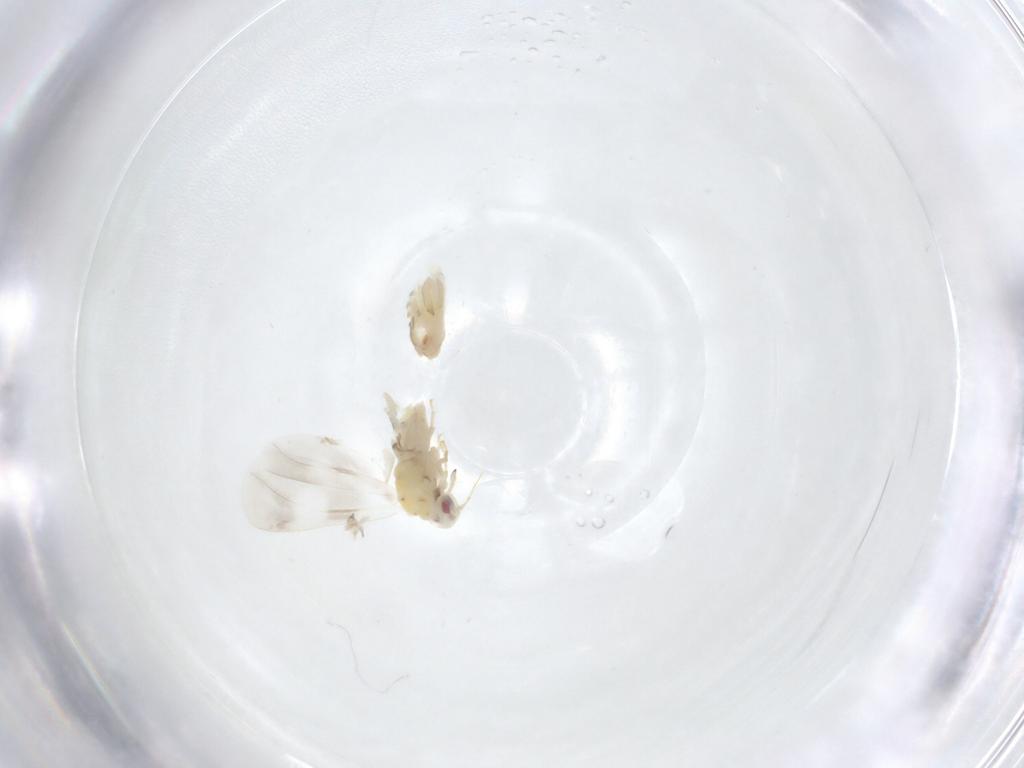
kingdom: Animalia
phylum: Arthropoda
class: Insecta
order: Hemiptera
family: Aleyrodidae
